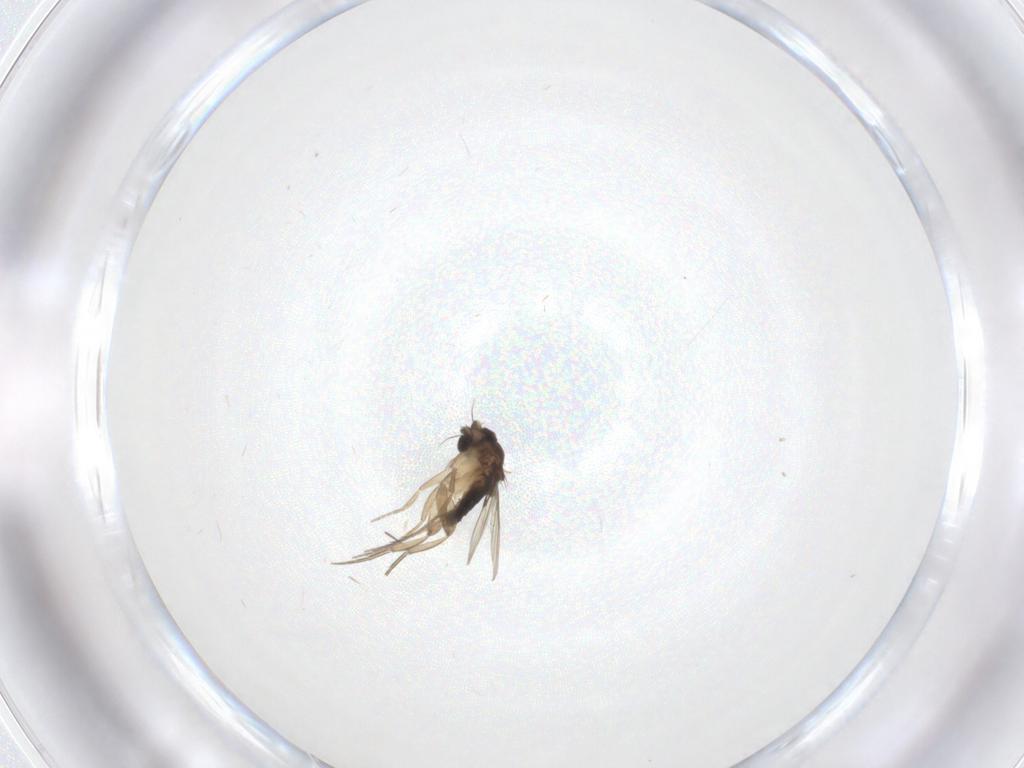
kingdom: Animalia
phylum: Arthropoda
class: Insecta
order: Diptera
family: Phoridae
